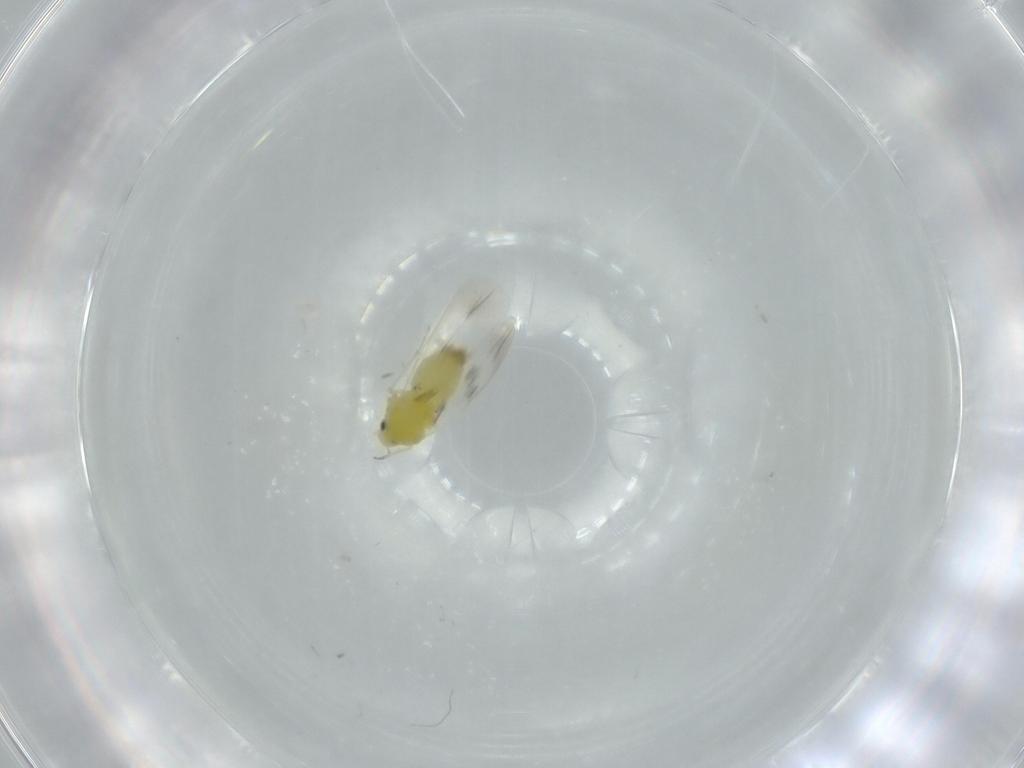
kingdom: Animalia
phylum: Arthropoda
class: Insecta
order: Hemiptera
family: Aleyrodidae
